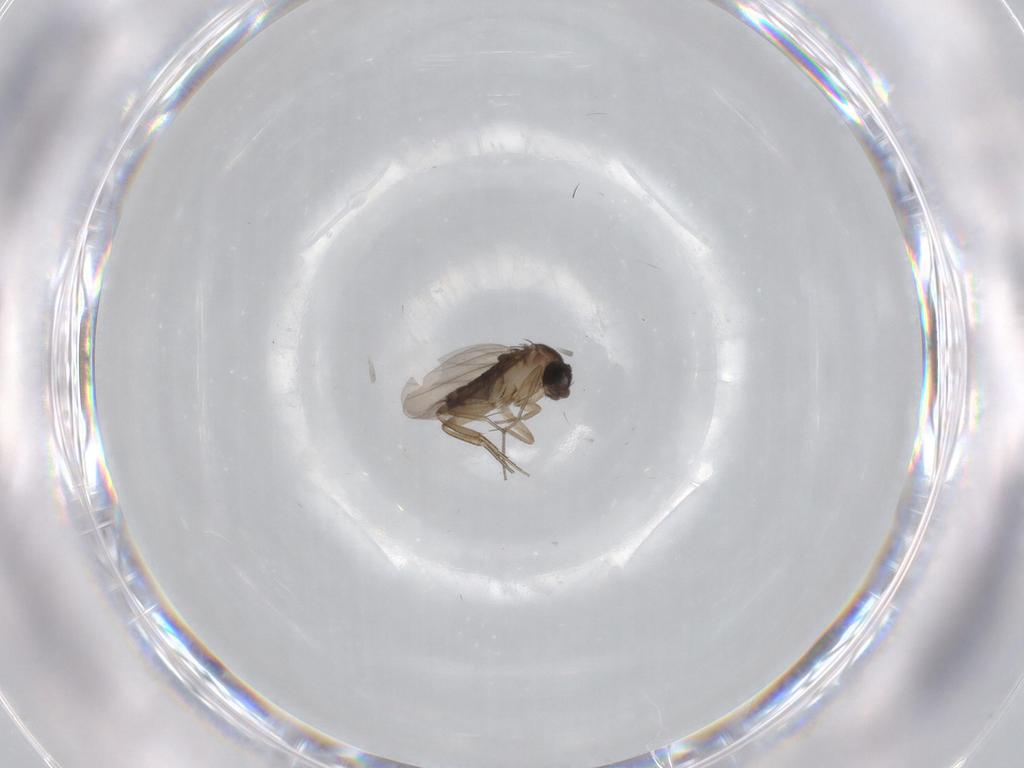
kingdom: Animalia
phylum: Arthropoda
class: Insecta
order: Diptera
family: Phoridae
